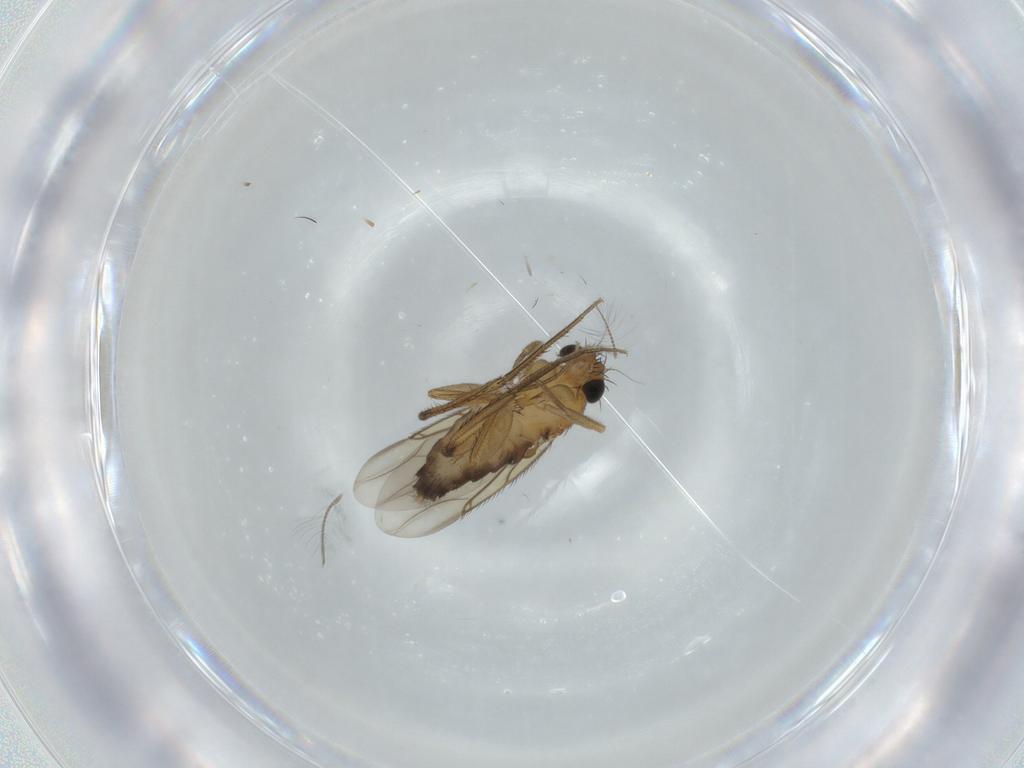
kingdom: Animalia
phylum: Arthropoda
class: Insecta
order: Diptera
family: Phoridae
